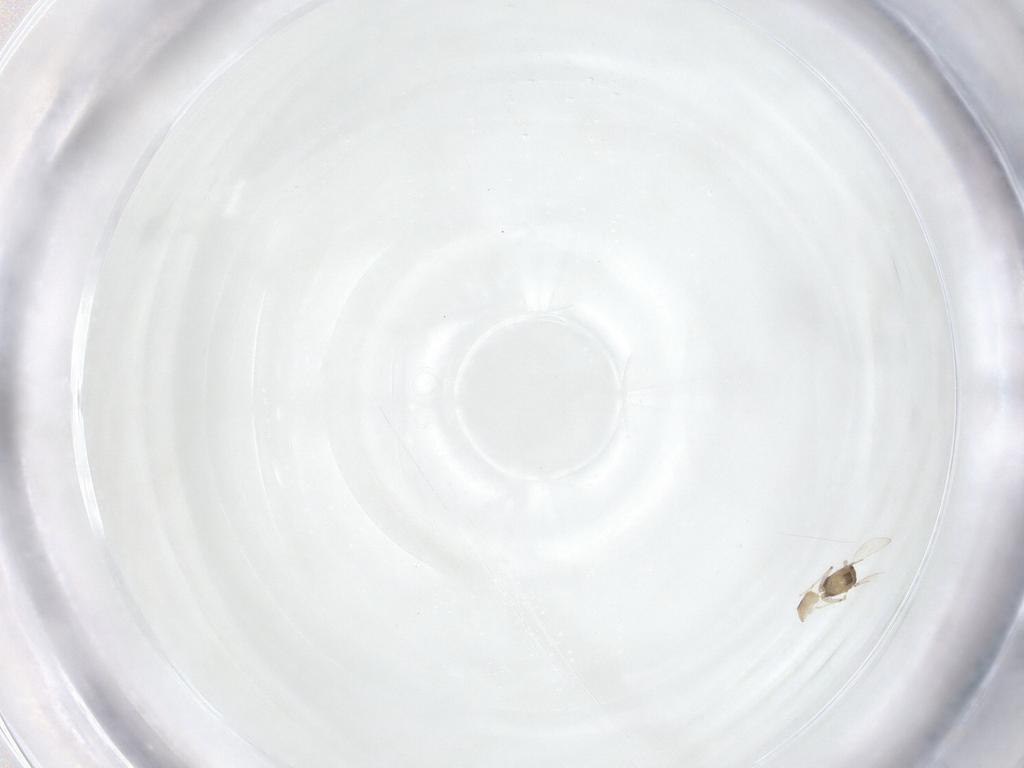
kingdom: Animalia
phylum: Arthropoda
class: Insecta
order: Diptera
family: Chironomidae
